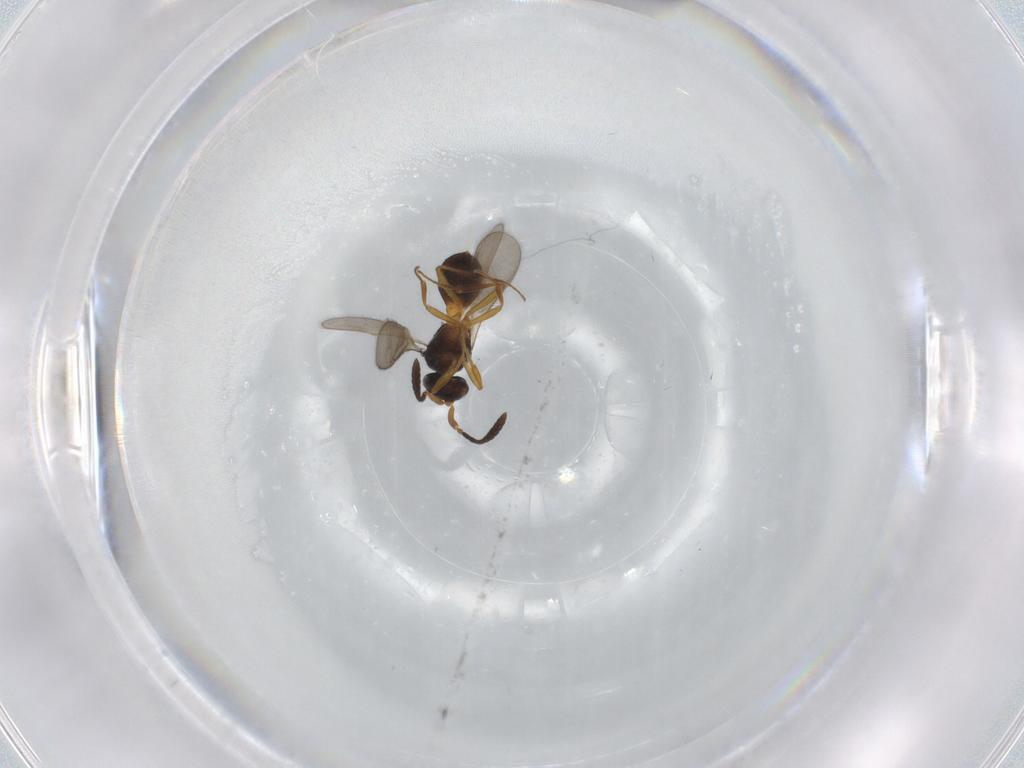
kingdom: Animalia
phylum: Arthropoda
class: Insecta
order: Hymenoptera
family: Scelionidae
